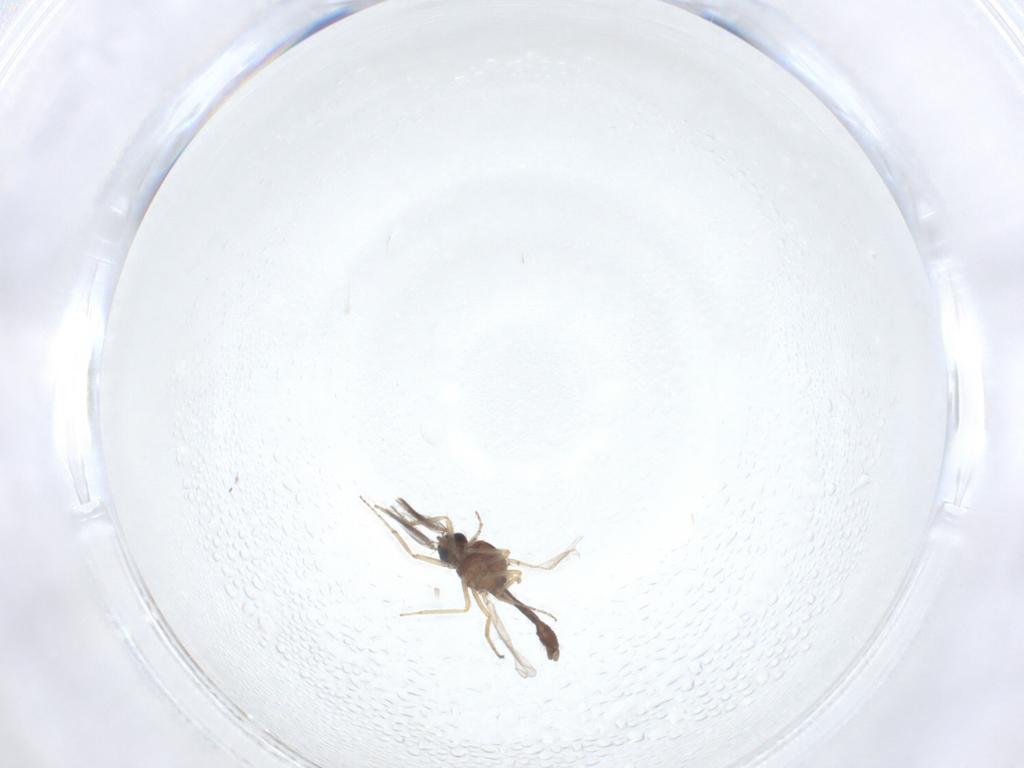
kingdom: Animalia
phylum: Arthropoda
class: Insecta
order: Diptera
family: Ceratopogonidae
